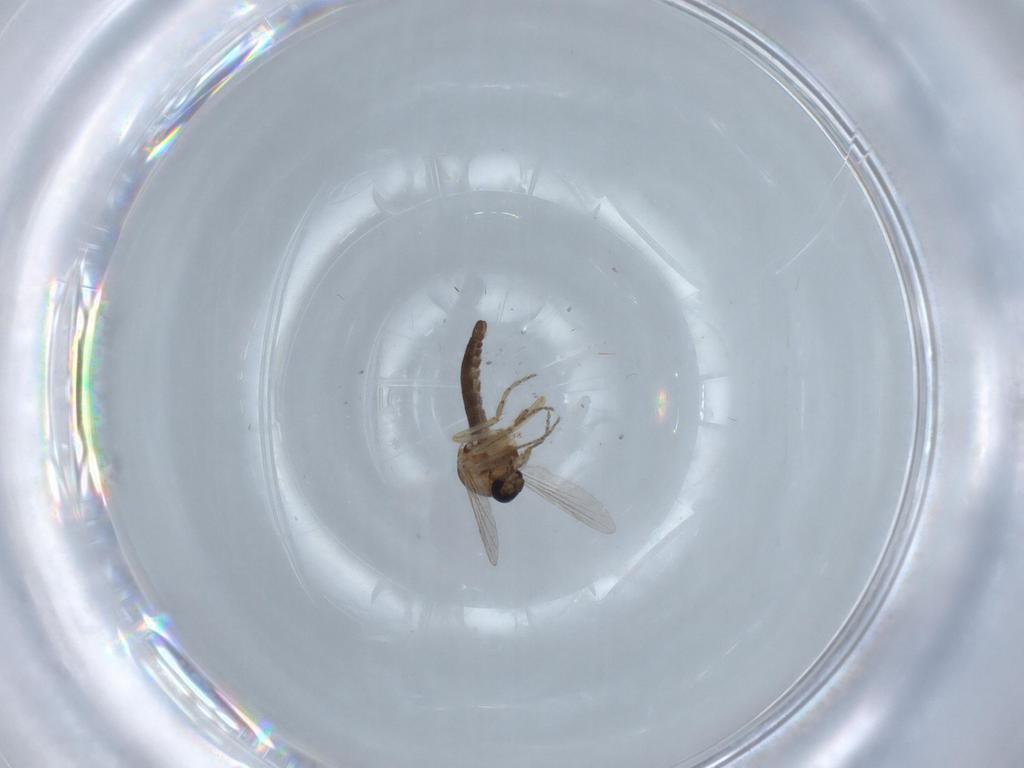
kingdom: Animalia
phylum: Arthropoda
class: Insecta
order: Diptera
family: Ceratopogonidae
